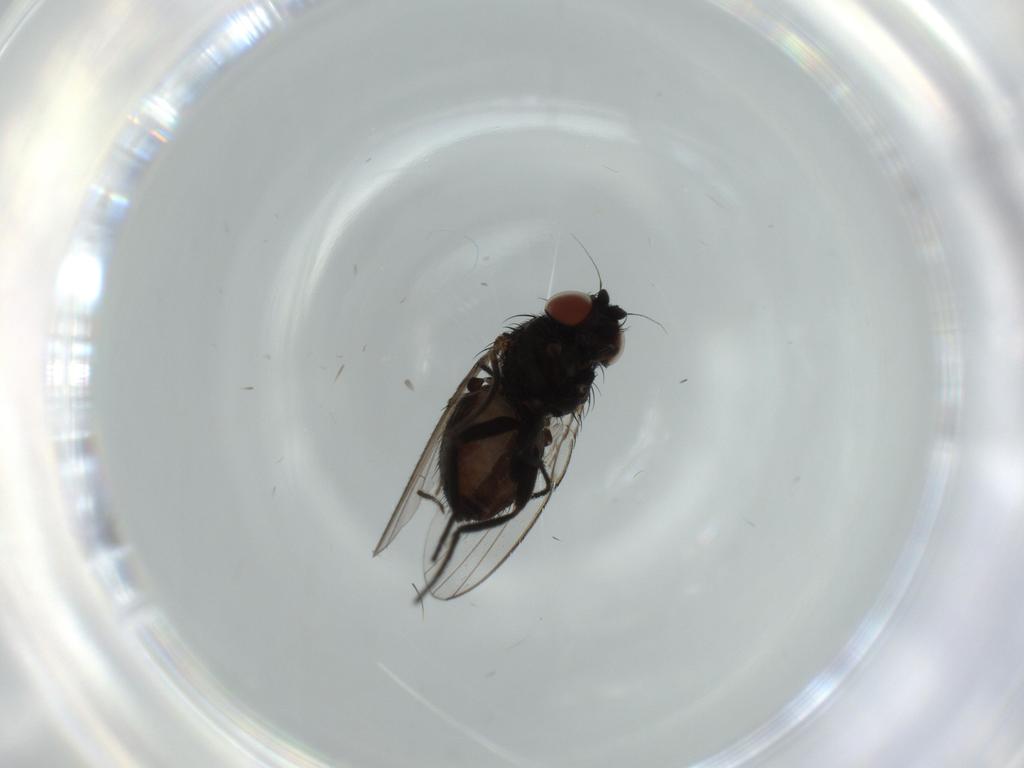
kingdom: Animalia
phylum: Arthropoda
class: Insecta
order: Diptera
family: Milichiidae
